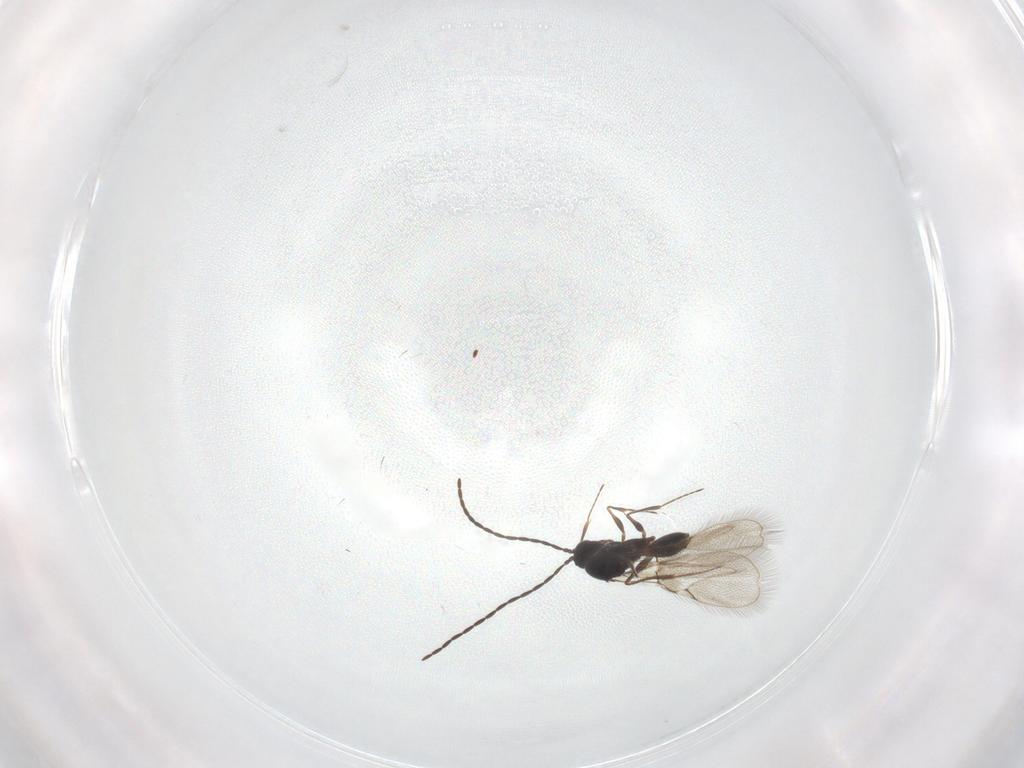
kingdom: Animalia
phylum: Arthropoda
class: Insecta
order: Hymenoptera
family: Figitidae
